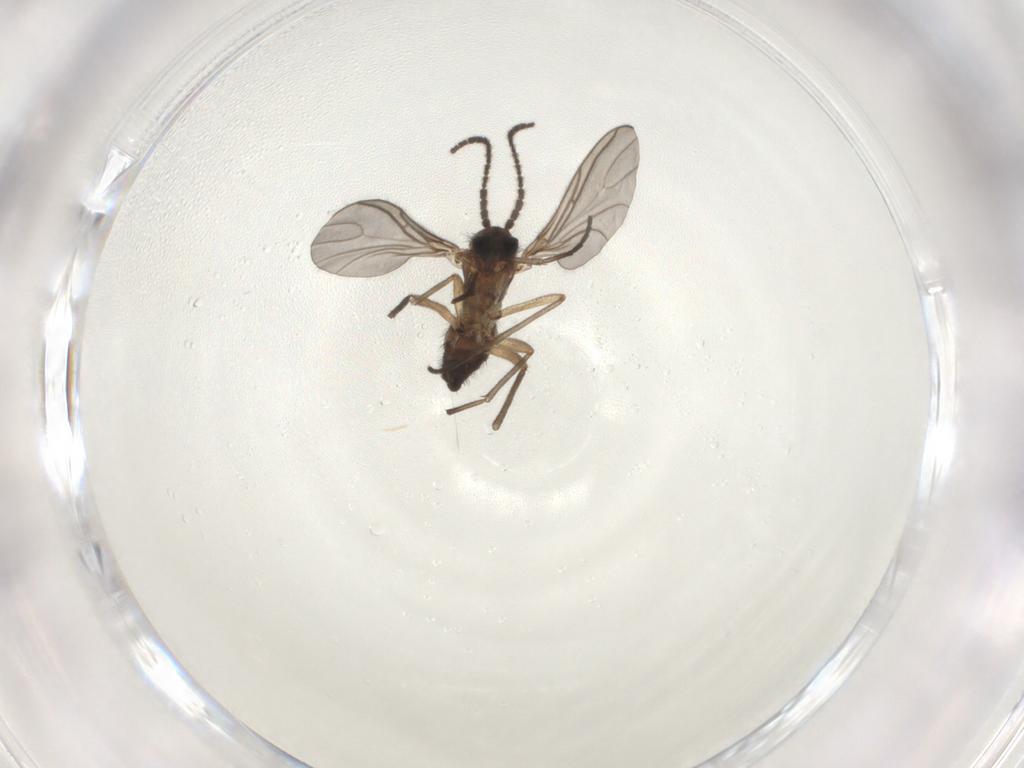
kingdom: Animalia
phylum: Arthropoda
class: Insecta
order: Diptera
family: Sciaridae
